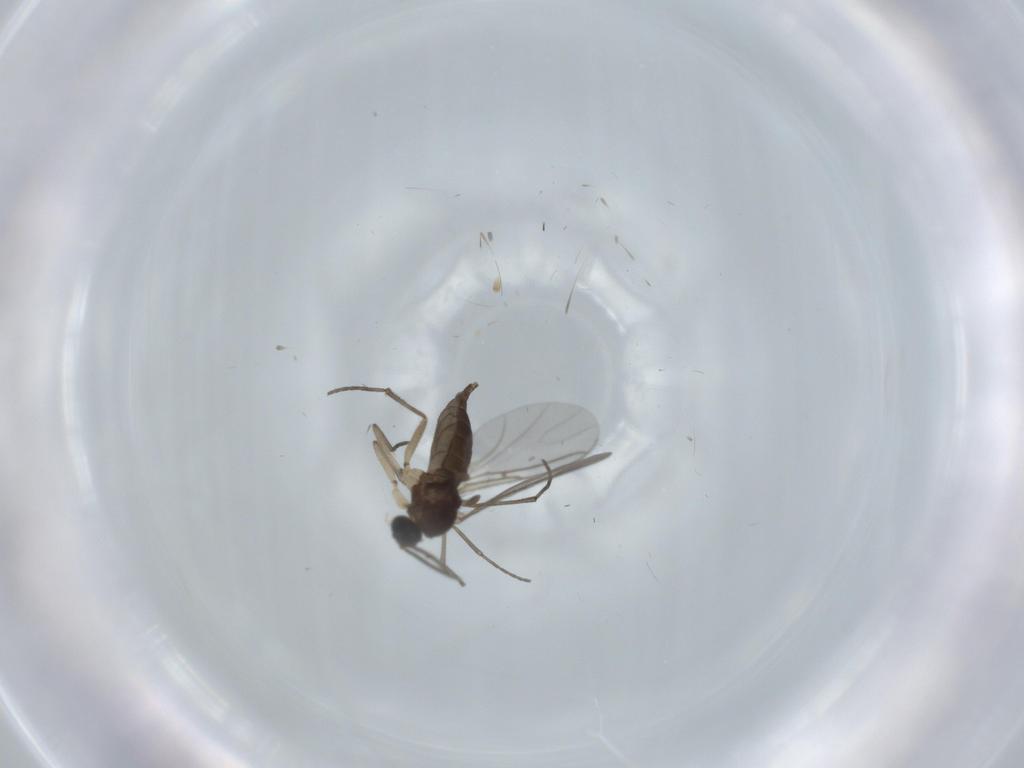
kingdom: Animalia
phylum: Arthropoda
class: Insecta
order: Diptera
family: Sciaridae
